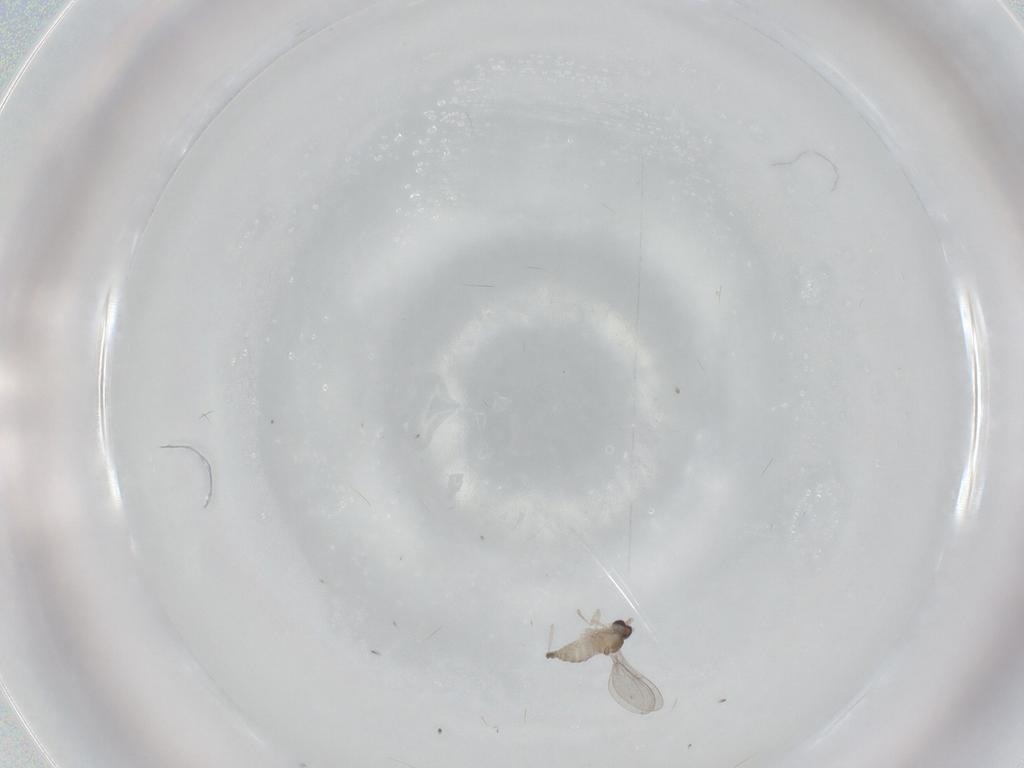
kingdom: Animalia
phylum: Arthropoda
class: Insecta
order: Diptera
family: Cecidomyiidae
